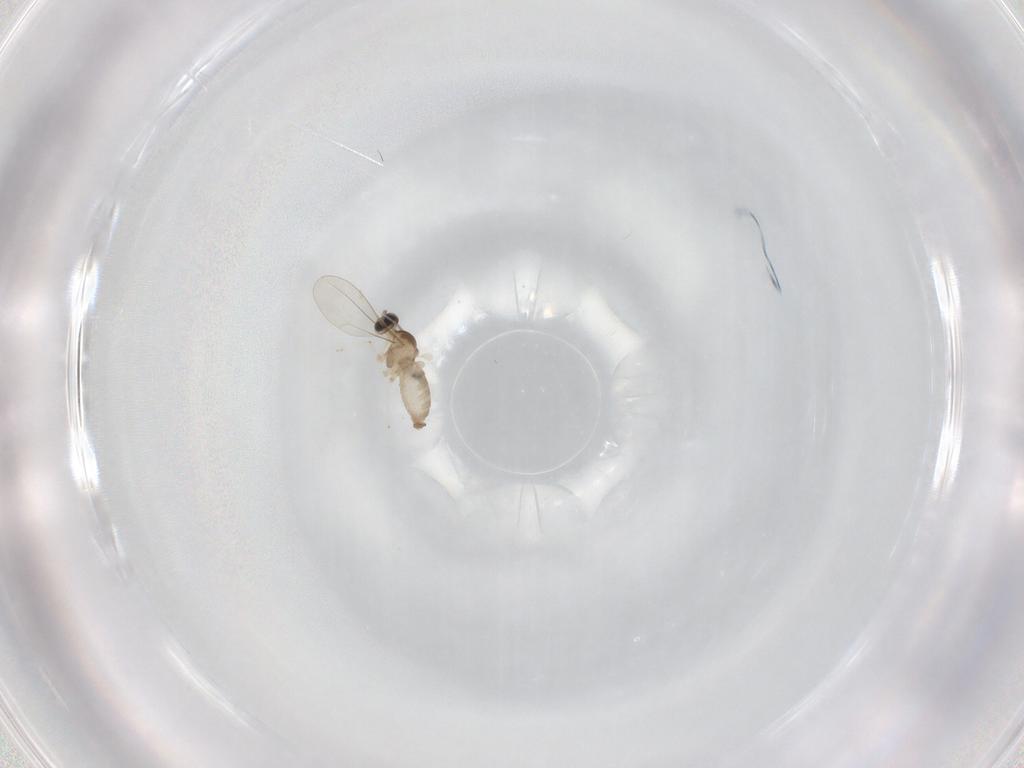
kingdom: Animalia
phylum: Arthropoda
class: Insecta
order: Diptera
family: Sphaeroceridae
